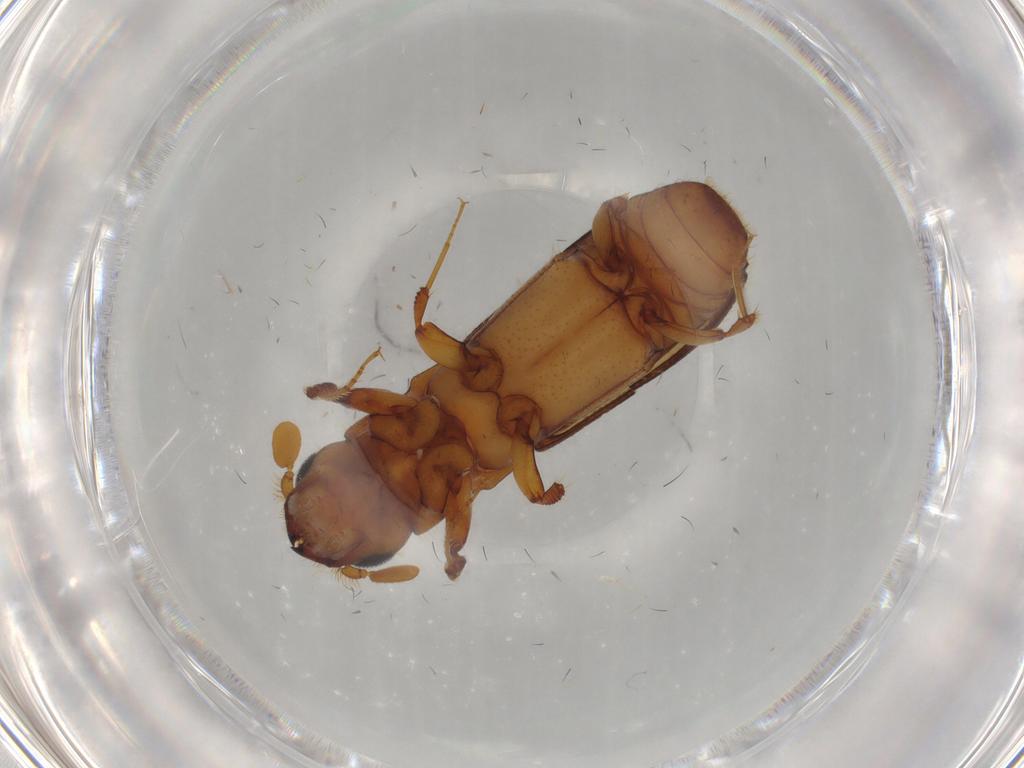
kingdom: Animalia
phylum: Arthropoda
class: Insecta
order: Coleoptera
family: Curculionidae
